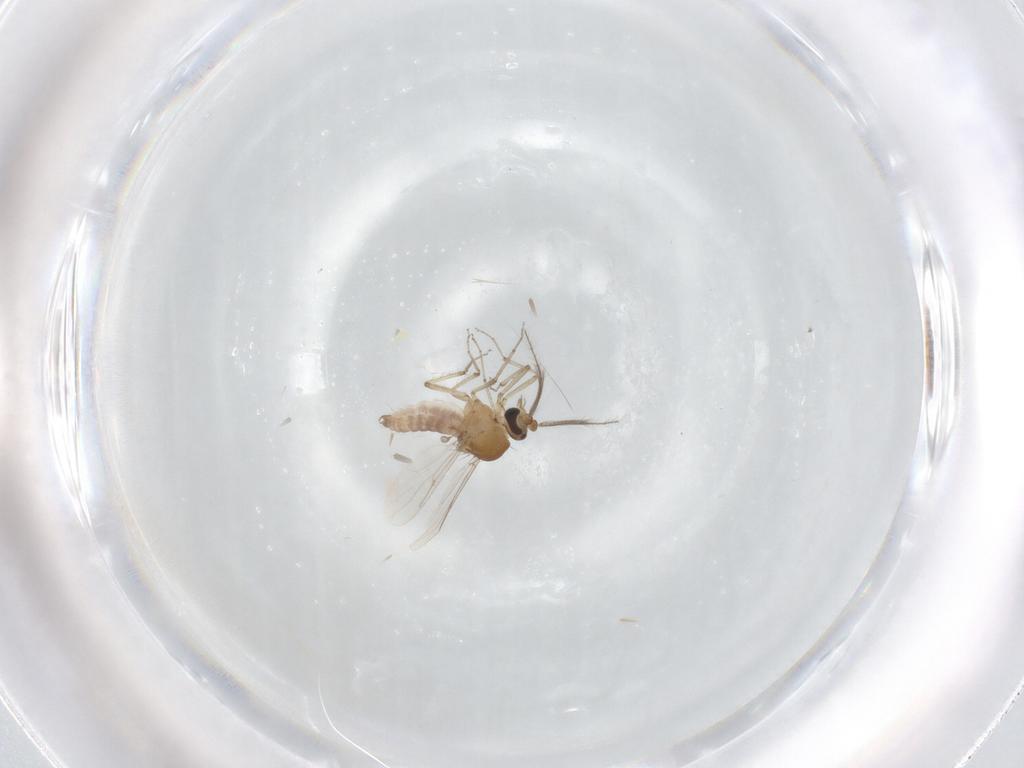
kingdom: Animalia
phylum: Arthropoda
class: Insecta
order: Diptera
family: Sciaridae
